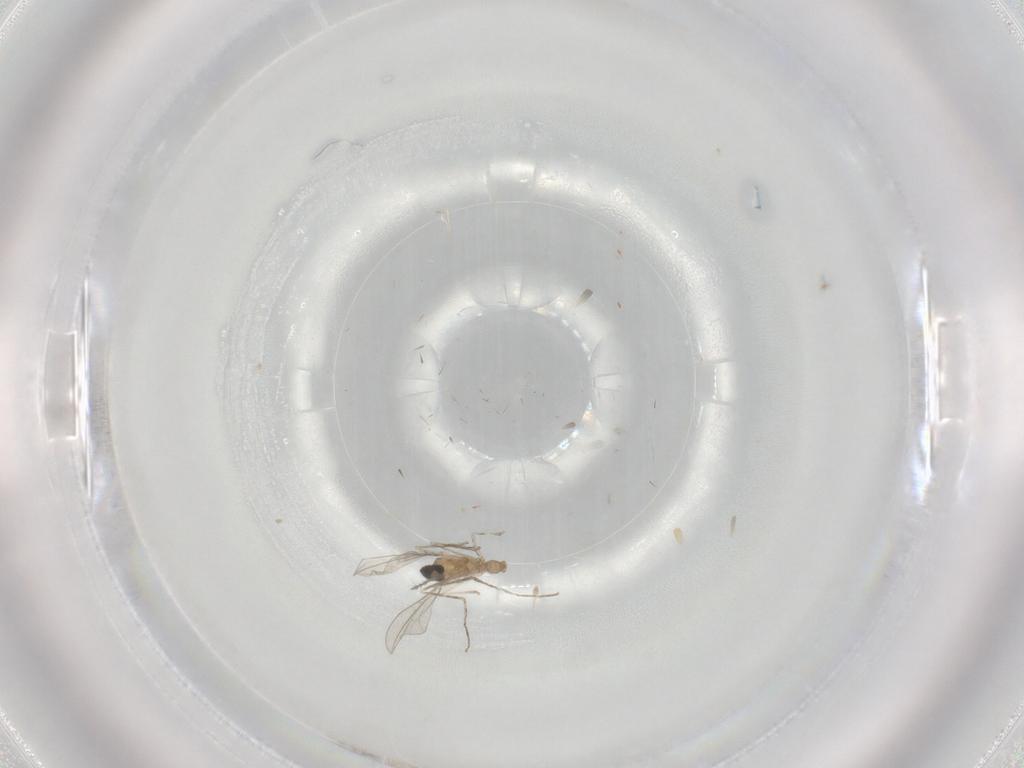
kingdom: Animalia
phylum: Arthropoda
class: Insecta
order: Diptera
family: Cecidomyiidae
